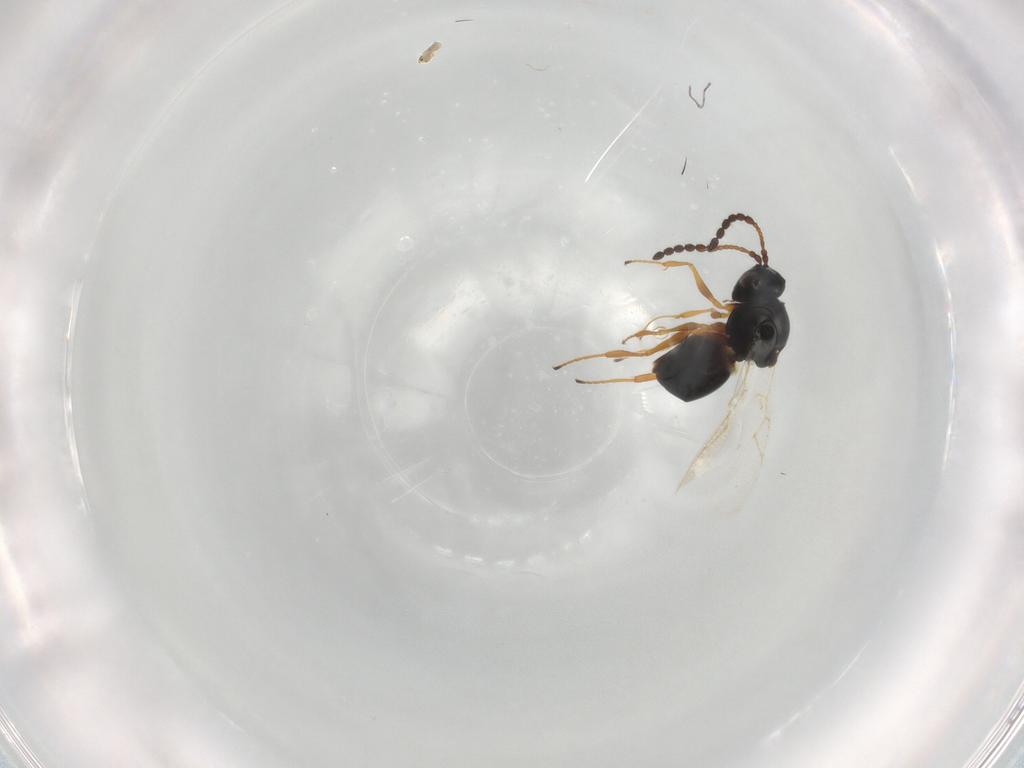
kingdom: Animalia
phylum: Arthropoda
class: Insecta
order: Hymenoptera
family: Figitidae
